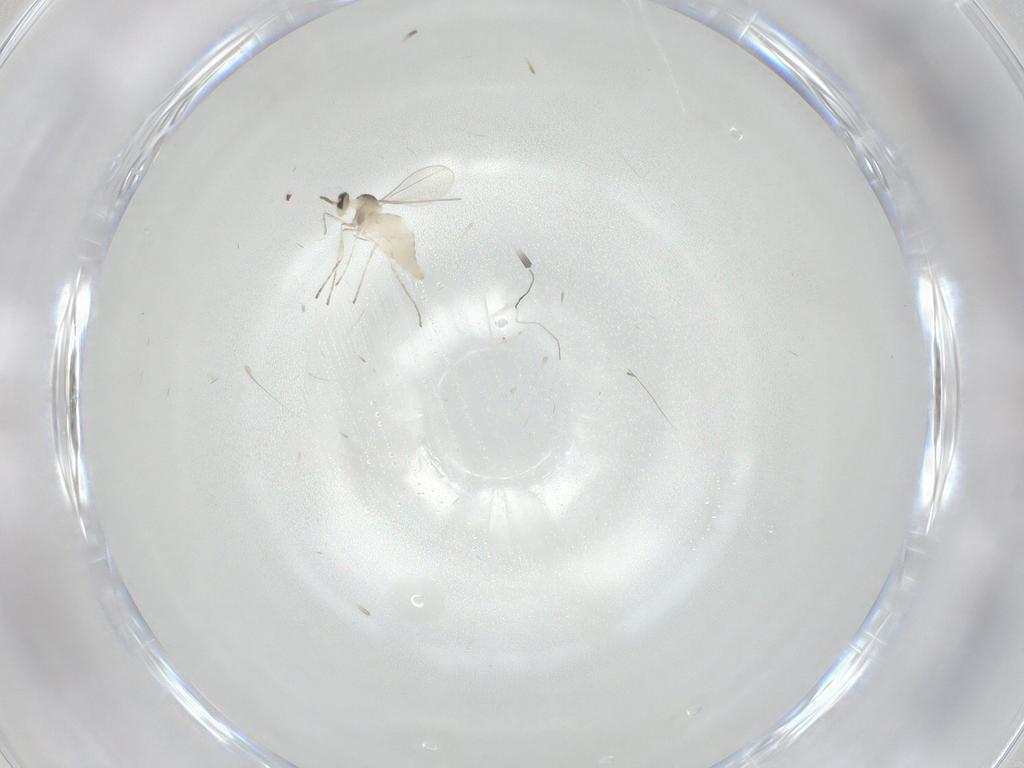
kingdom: Animalia
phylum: Arthropoda
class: Insecta
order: Diptera
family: Cecidomyiidae
